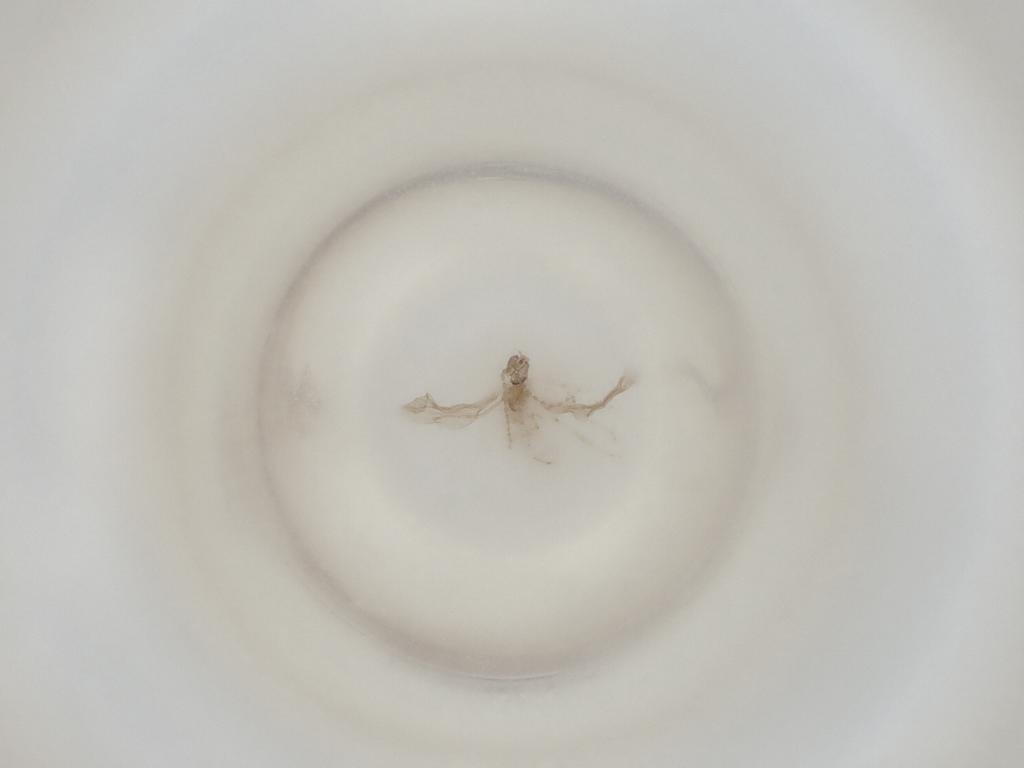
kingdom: Animalia
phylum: Arthropoda
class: Insecta
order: Diptera
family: Cecidomyiidae
